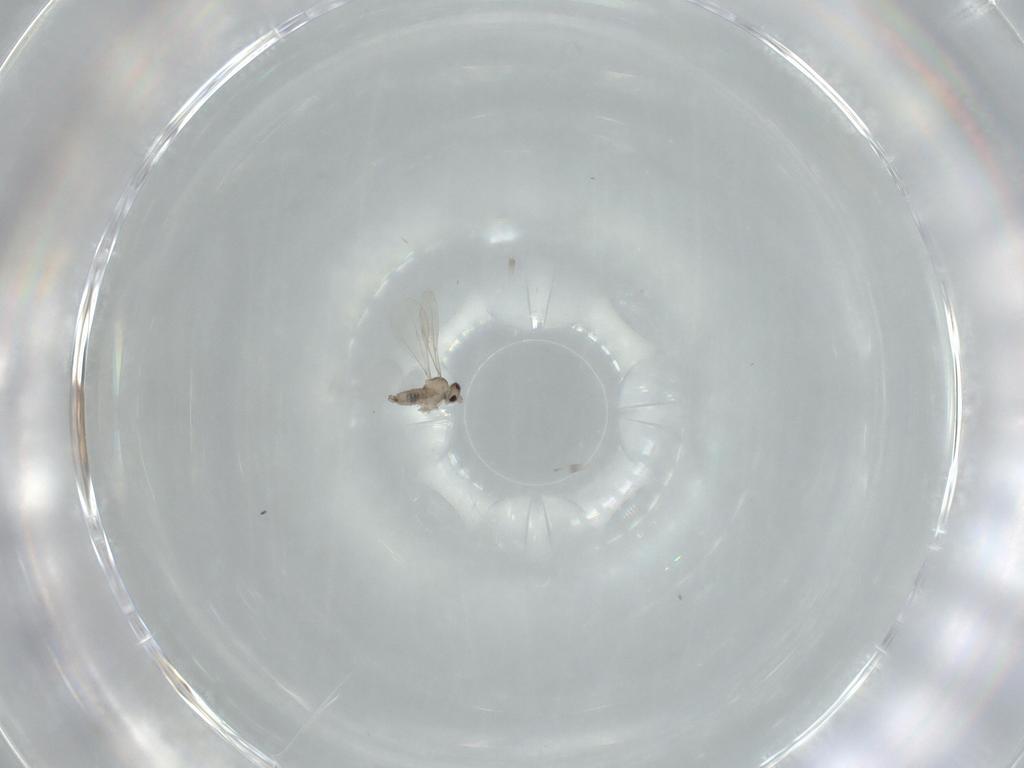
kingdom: Animalia
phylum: Arthropoda
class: Insecta
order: Diptera
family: Cecidomyiidae
